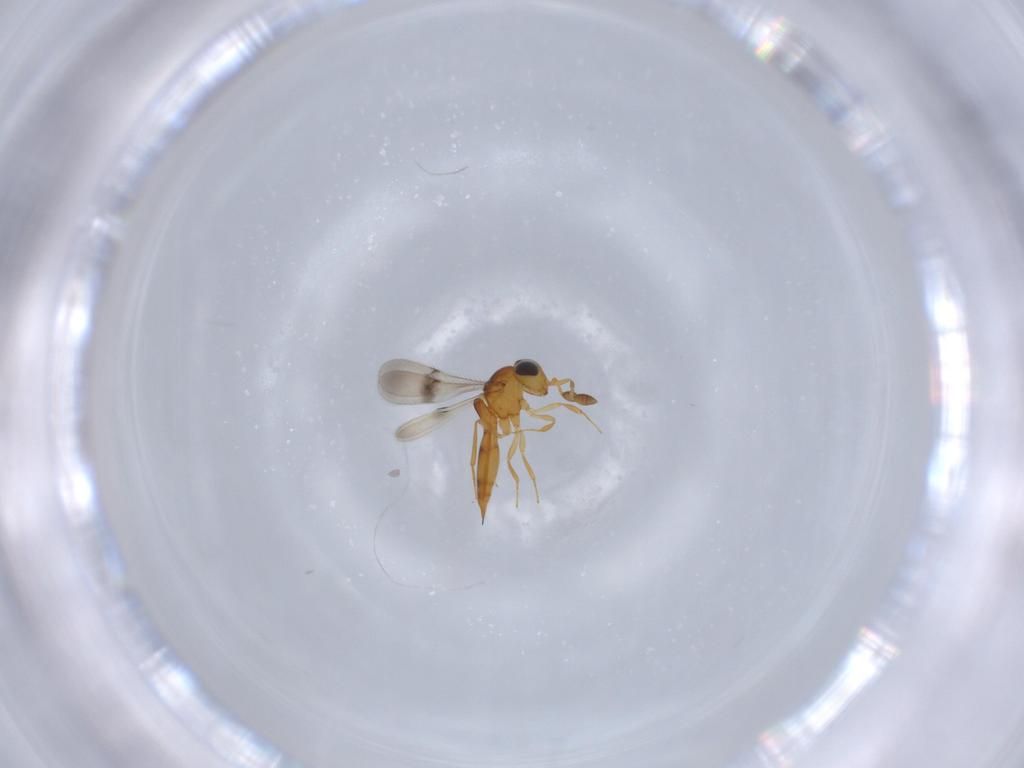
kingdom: Animalia
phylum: Arthropoda
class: Insecta
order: Hymenoptera
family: Scelionidae
